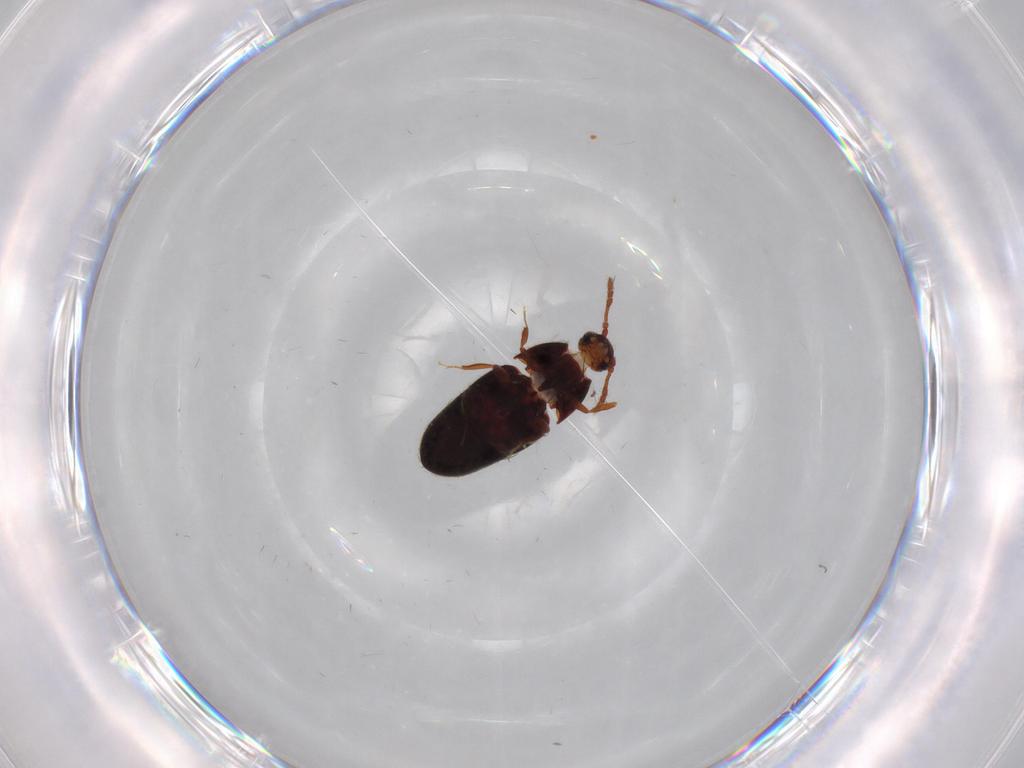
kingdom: Animalia
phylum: Arthropoda
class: Insecta
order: Coleoptera
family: Throscidae
